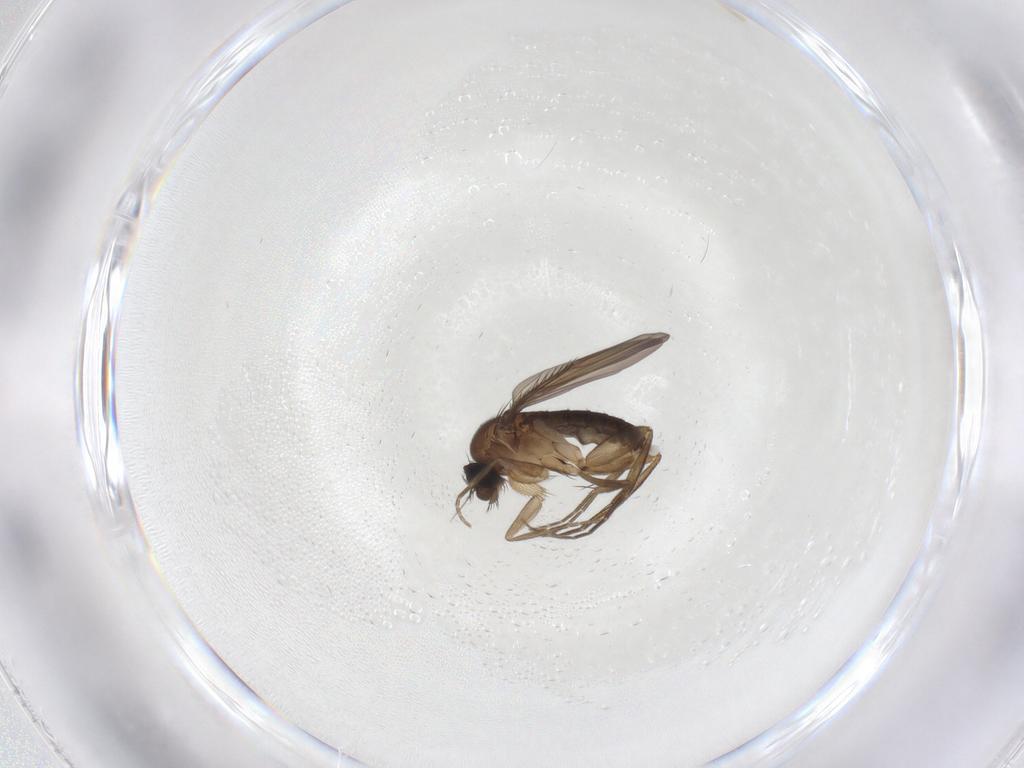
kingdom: Animalia
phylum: Arthropoda
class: Insecta
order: Diptera
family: Phoridae
